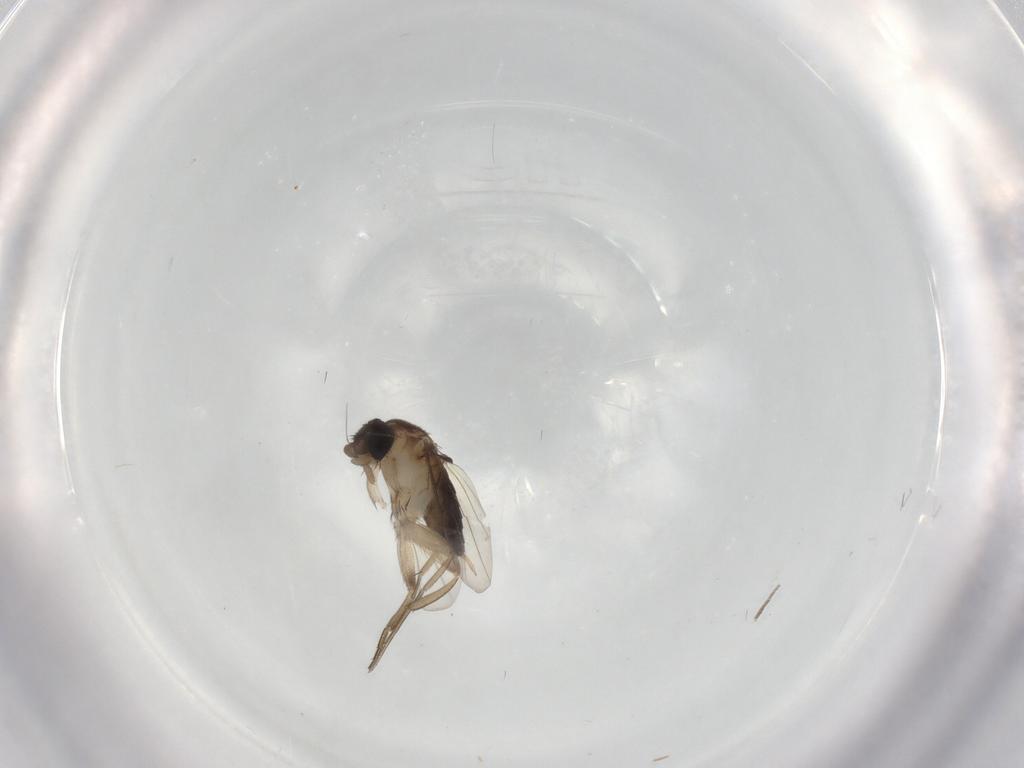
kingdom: Animalia
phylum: Arthropoda
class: Insecta
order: Diptera
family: Phoridae
